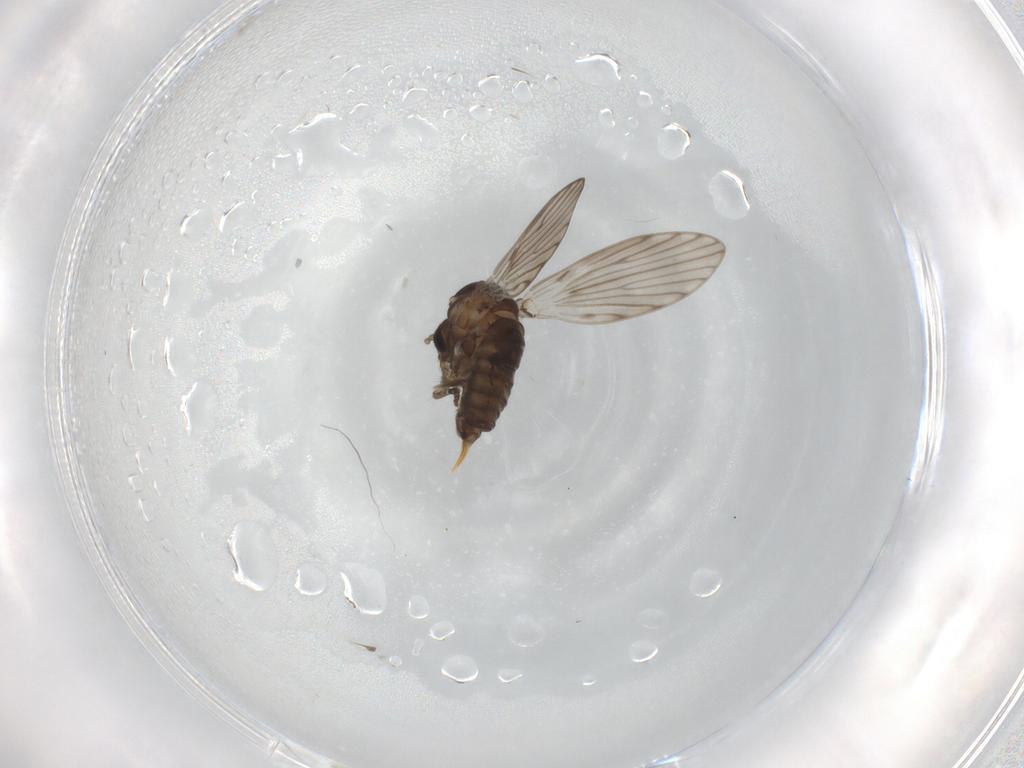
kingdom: Animalia
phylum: Arthropoda
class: Insecta
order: Diptera
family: Psychodidae
